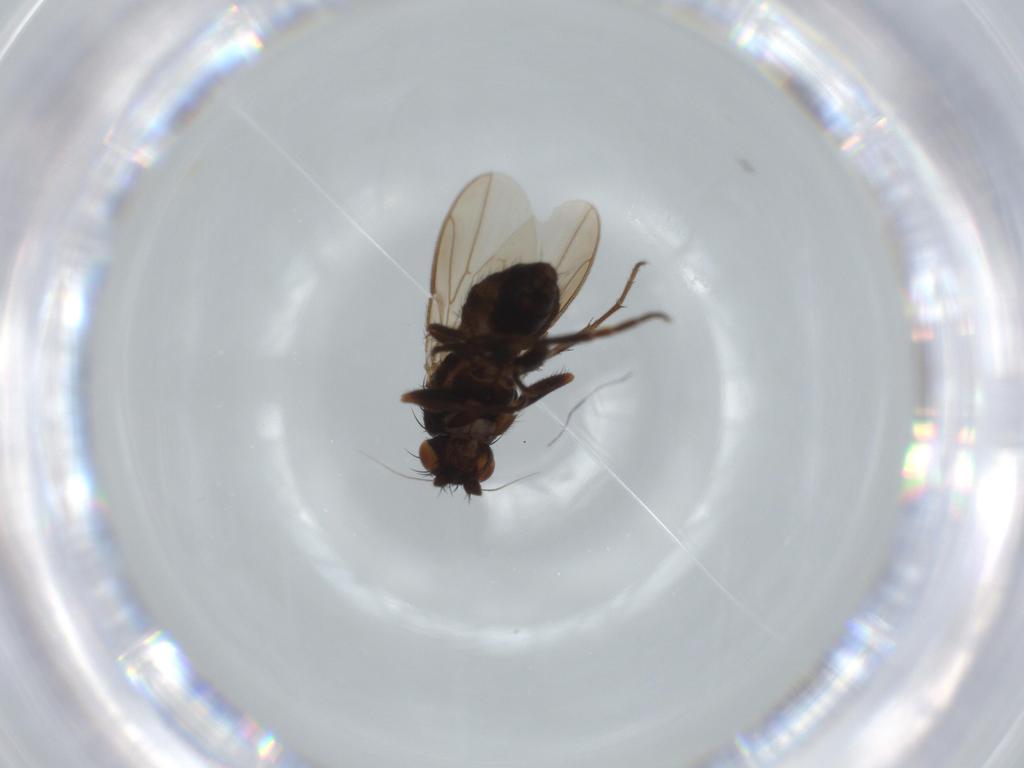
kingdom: Animalia
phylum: Arthropoda
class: Insecta
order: Diptera
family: Sphaeroceridae
